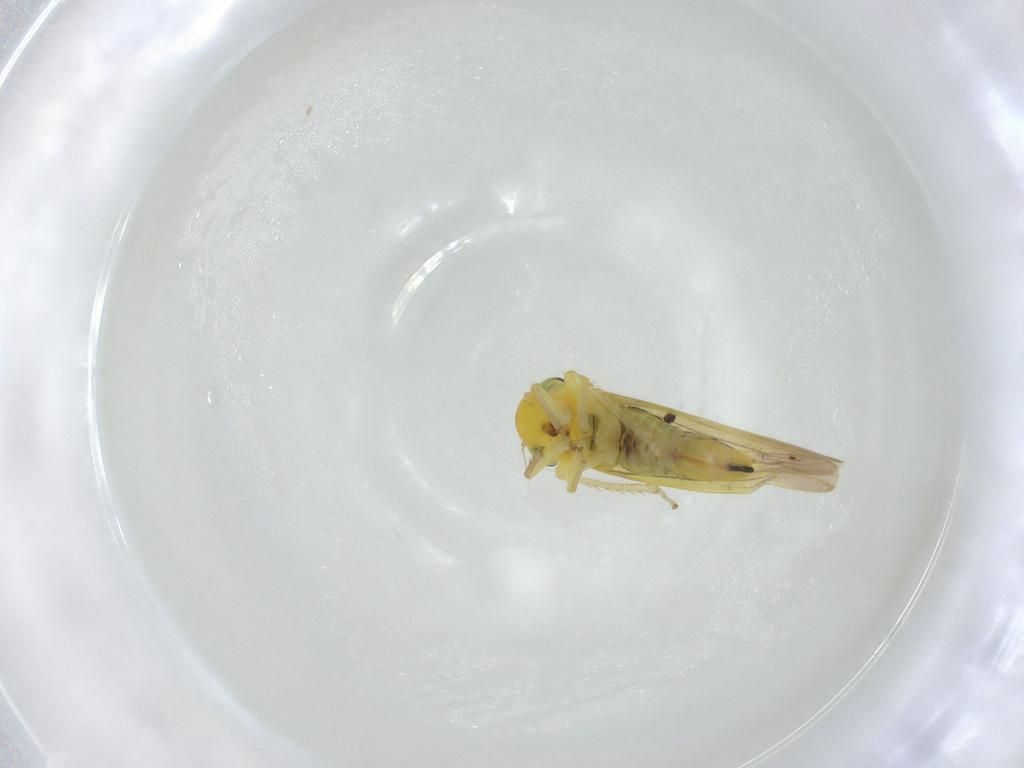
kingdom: Animalia
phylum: Arthropoda
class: Insecta
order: Hemiptera
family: Cicadellidae
